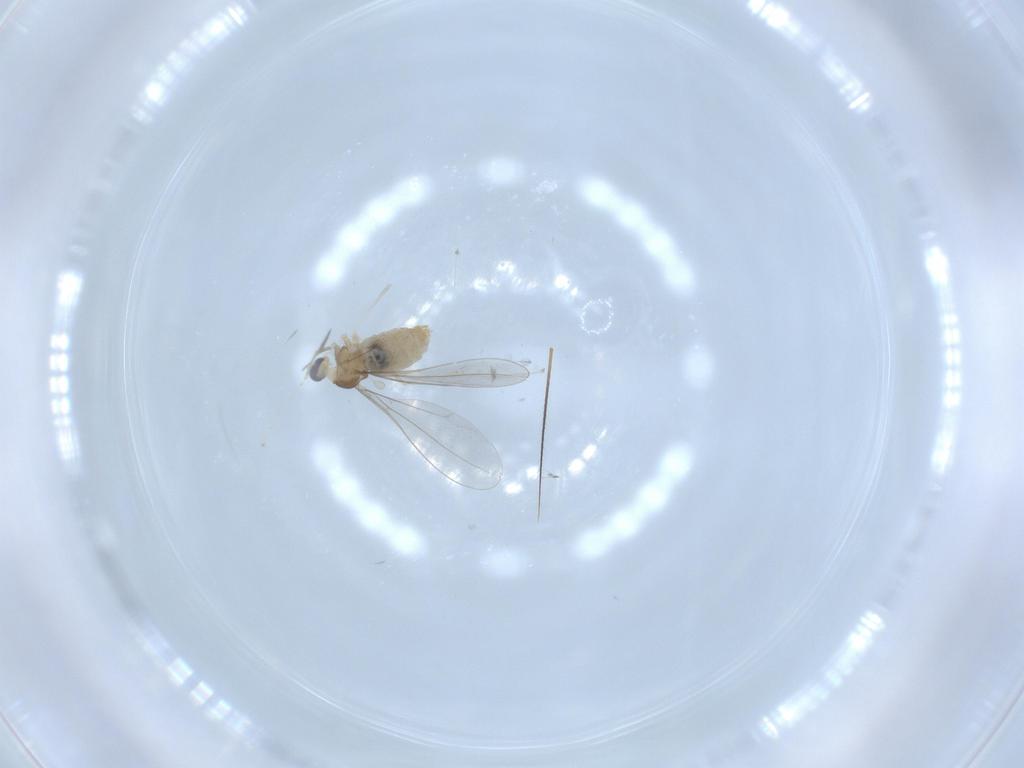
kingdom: Animalia
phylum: Arthropoda
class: Insecta
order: Diptera
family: Cecidomyiidae
